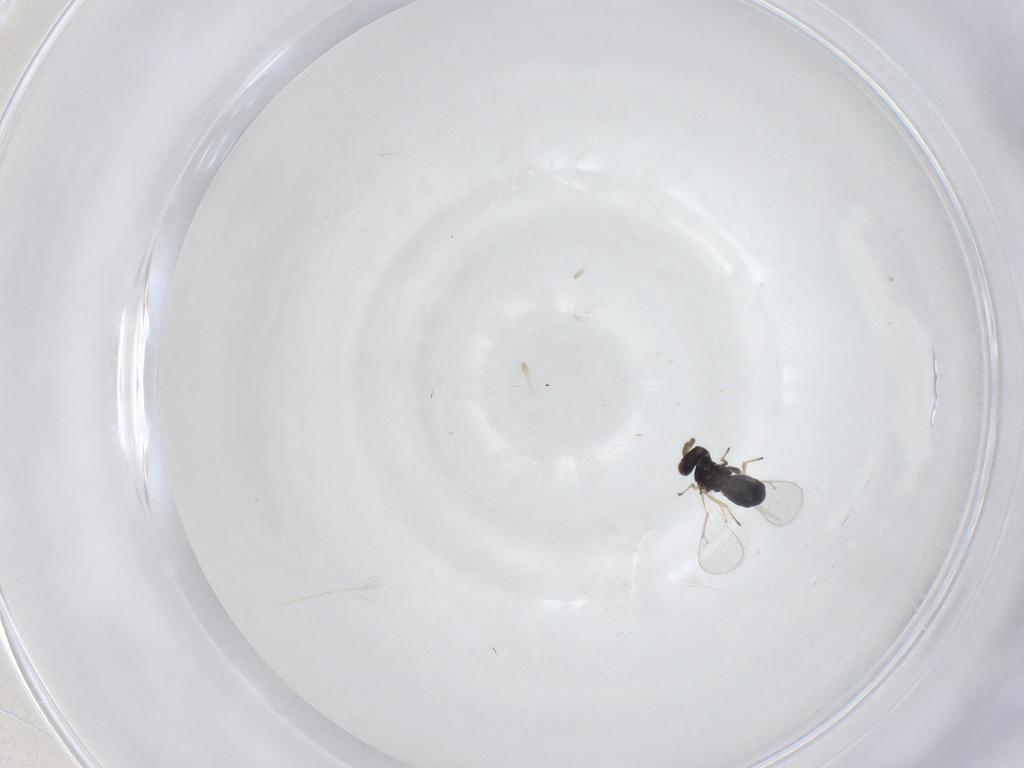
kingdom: Animalia
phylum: Arthropoda
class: Insecta
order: Hymenoptera
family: Eulophidae
